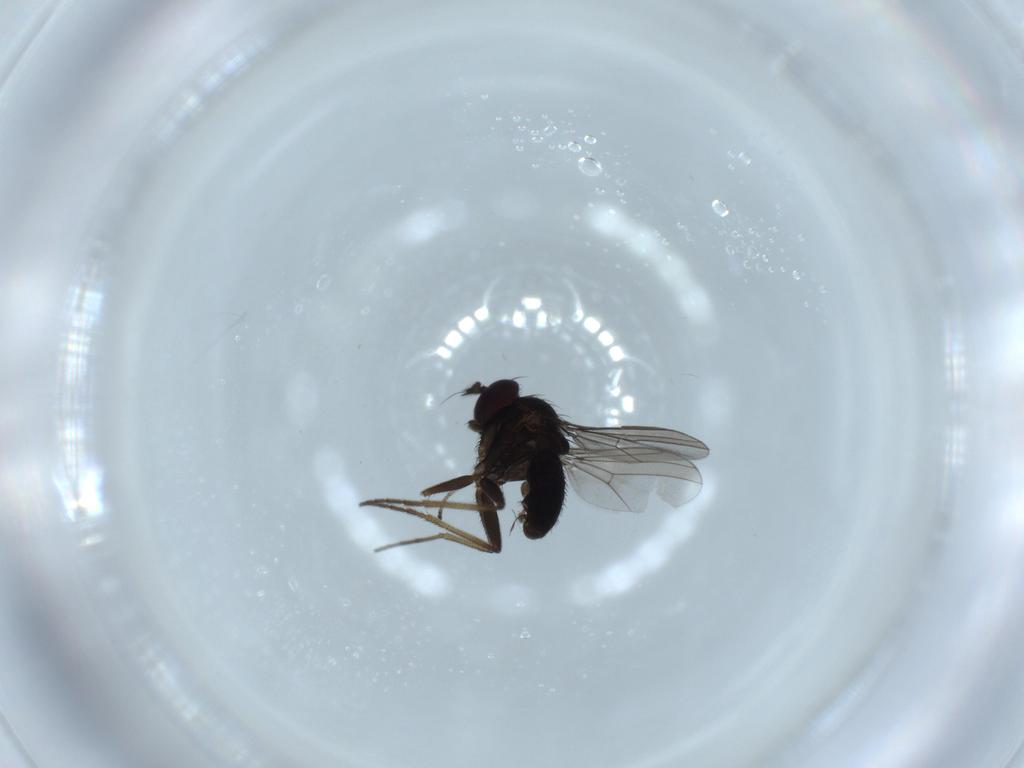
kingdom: Animalia
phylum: Arthropoda
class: Insecta
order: Diptera
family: Dolichopodidae
